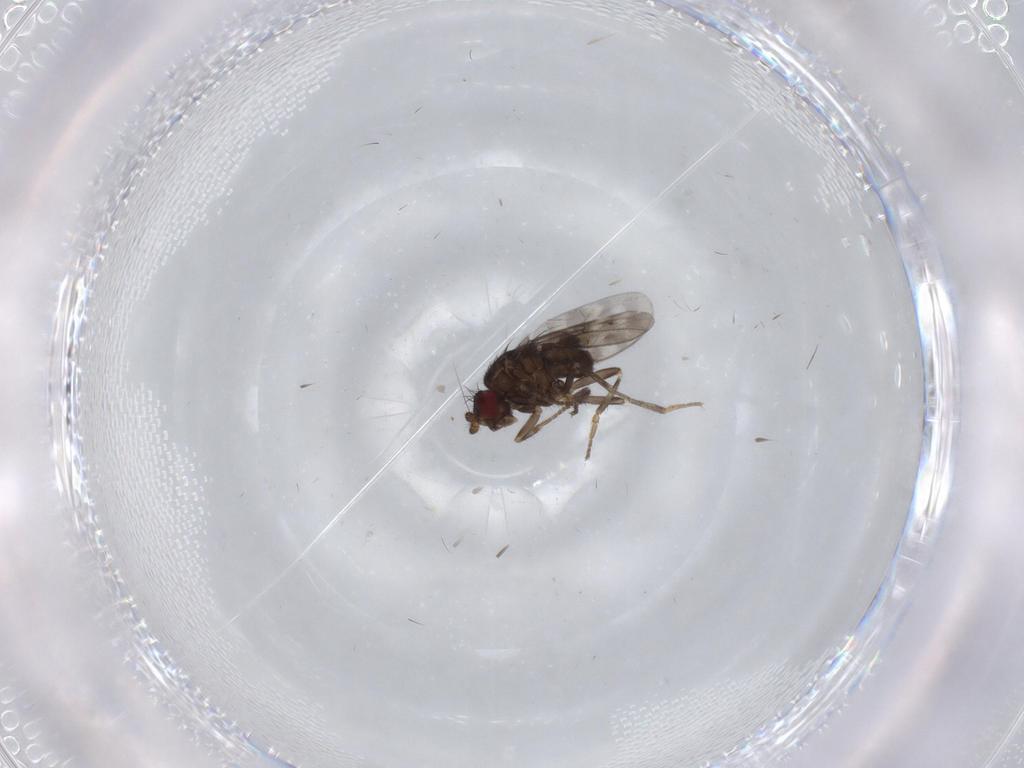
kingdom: Animalia
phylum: Arthropoda
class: Insecta
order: Diptera
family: Sphaeroceridae
